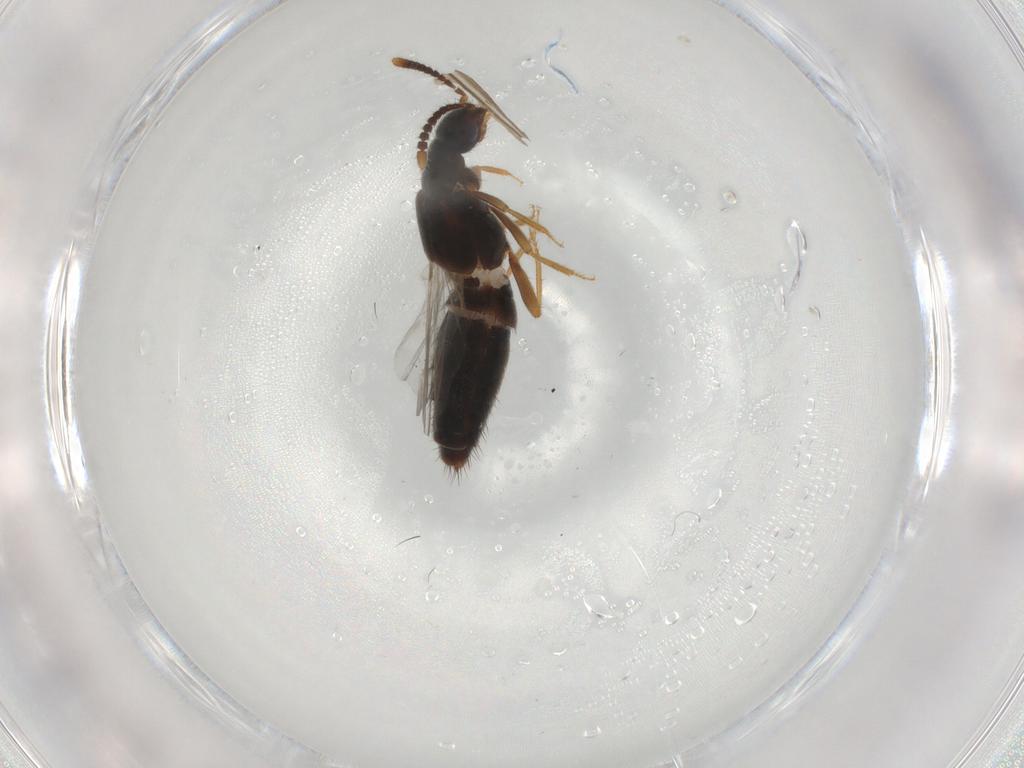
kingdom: Animalia
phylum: Arthropoda
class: Insecta
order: Coleoptera
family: Staphylinidae
